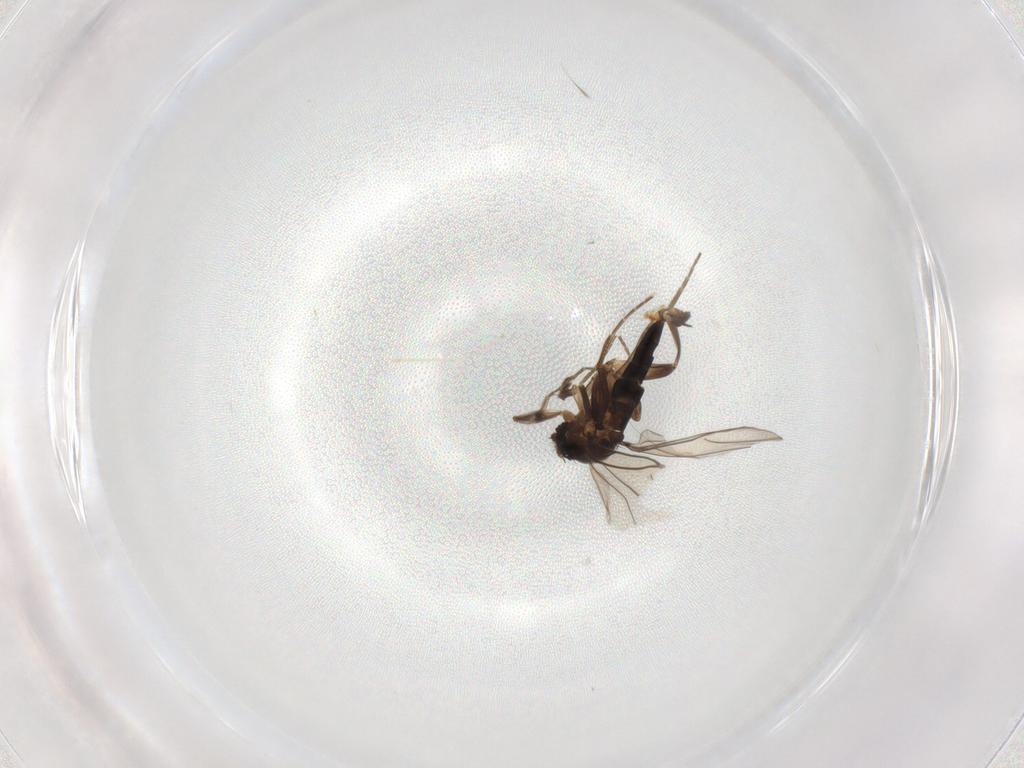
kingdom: Animalia
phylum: Arthropoda
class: Insecta
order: Diptera
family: Phoridae
